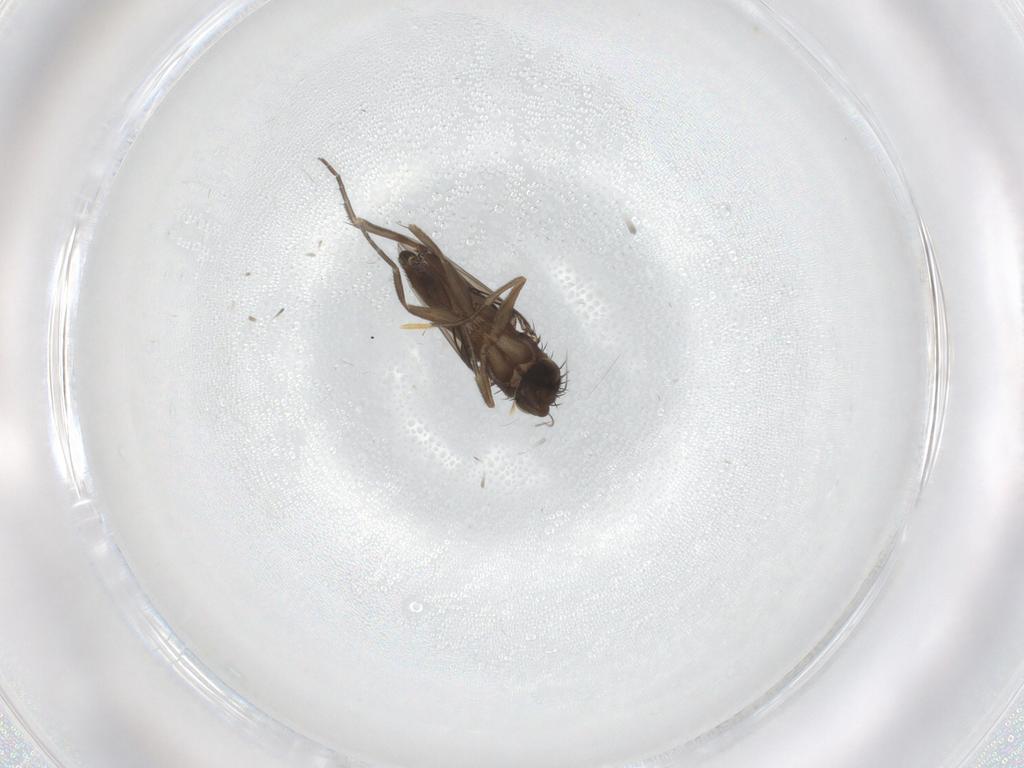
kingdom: Animalia
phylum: Arthropoda
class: Insecta
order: Diptera
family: Phoridae
